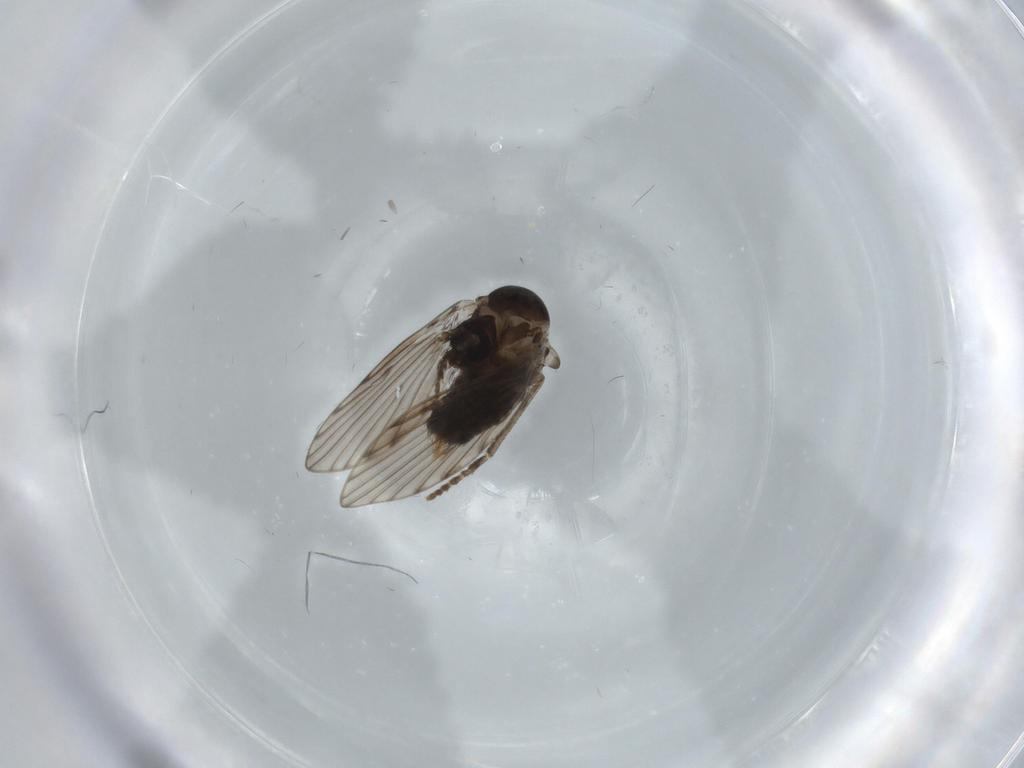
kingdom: Animalia
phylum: Arthropoda
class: Insecta
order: Diptera
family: Psychodidae
